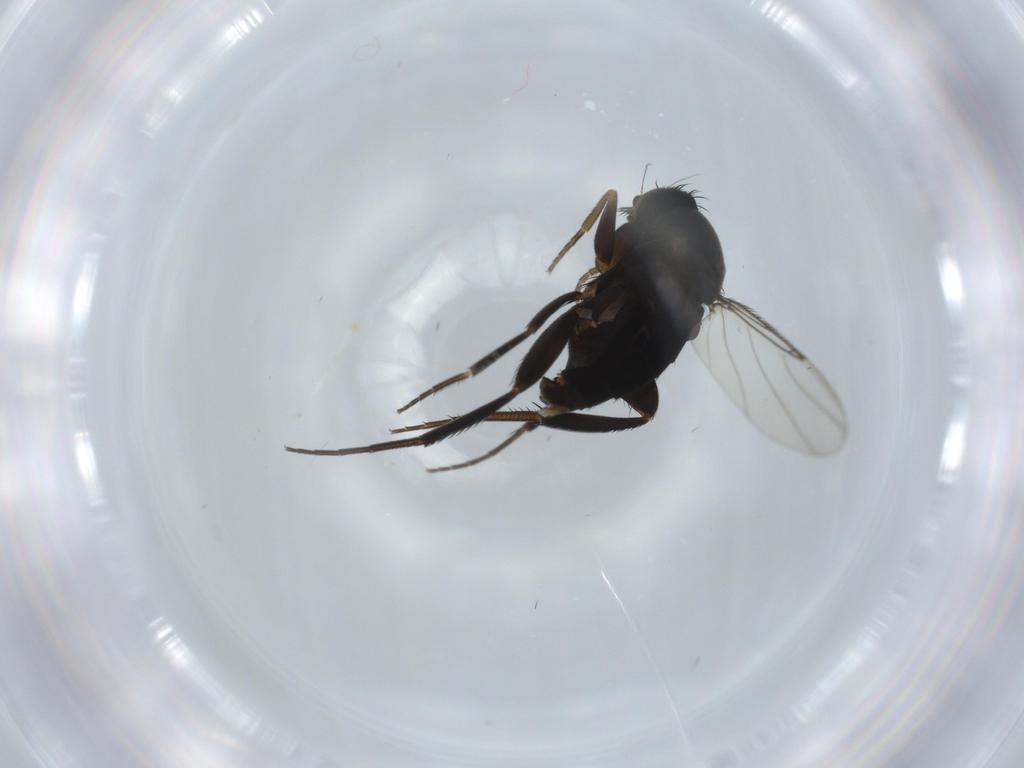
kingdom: Animalia
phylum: Arthropoda
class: Insecta
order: Diptera
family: Phoridae
